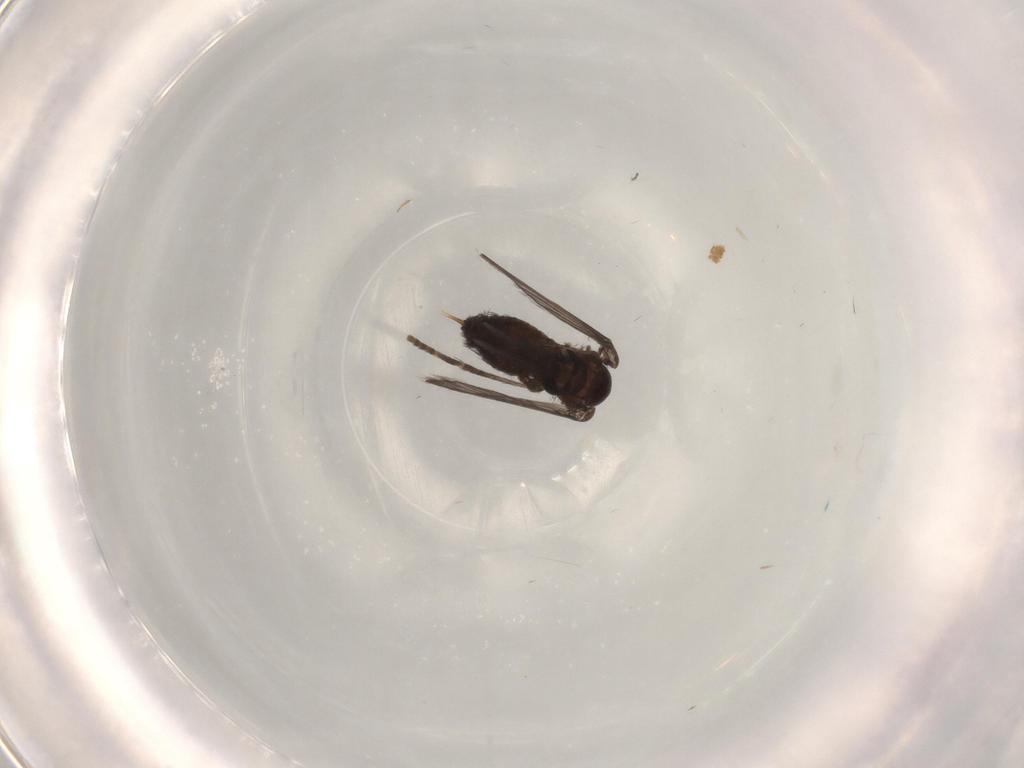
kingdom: Animalia
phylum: Arthropoda
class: Insecta
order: Diptera
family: Psychodidae
